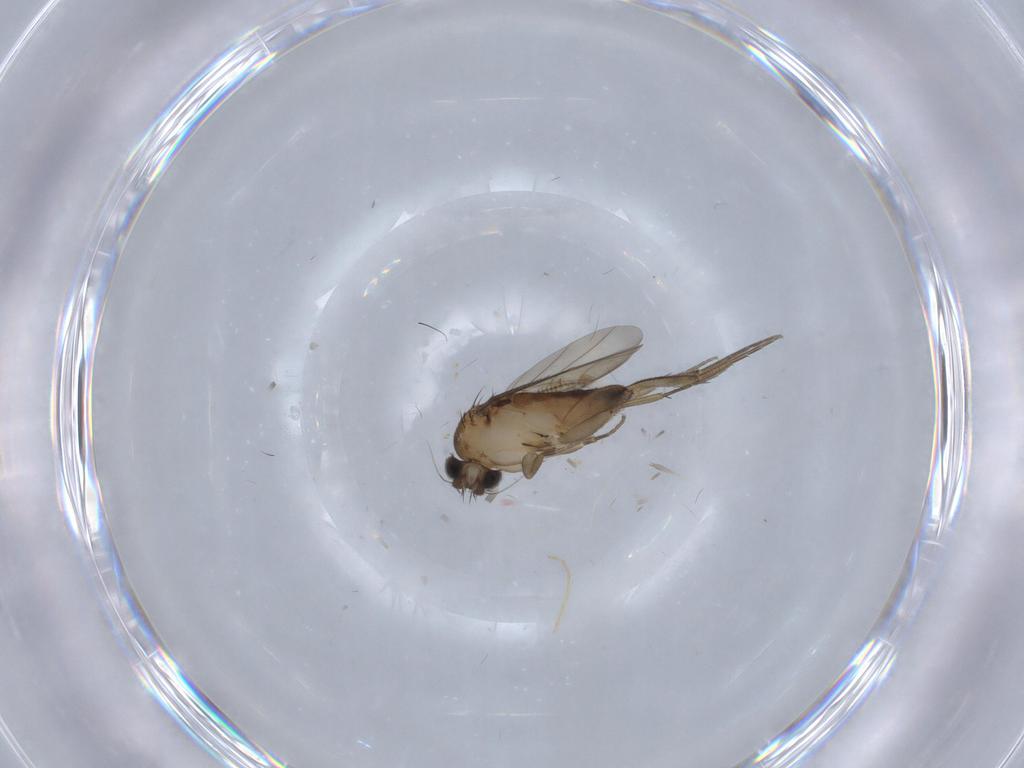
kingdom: Animalia
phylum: Arthropoda
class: Insecta
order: Diptera
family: Phoridae
